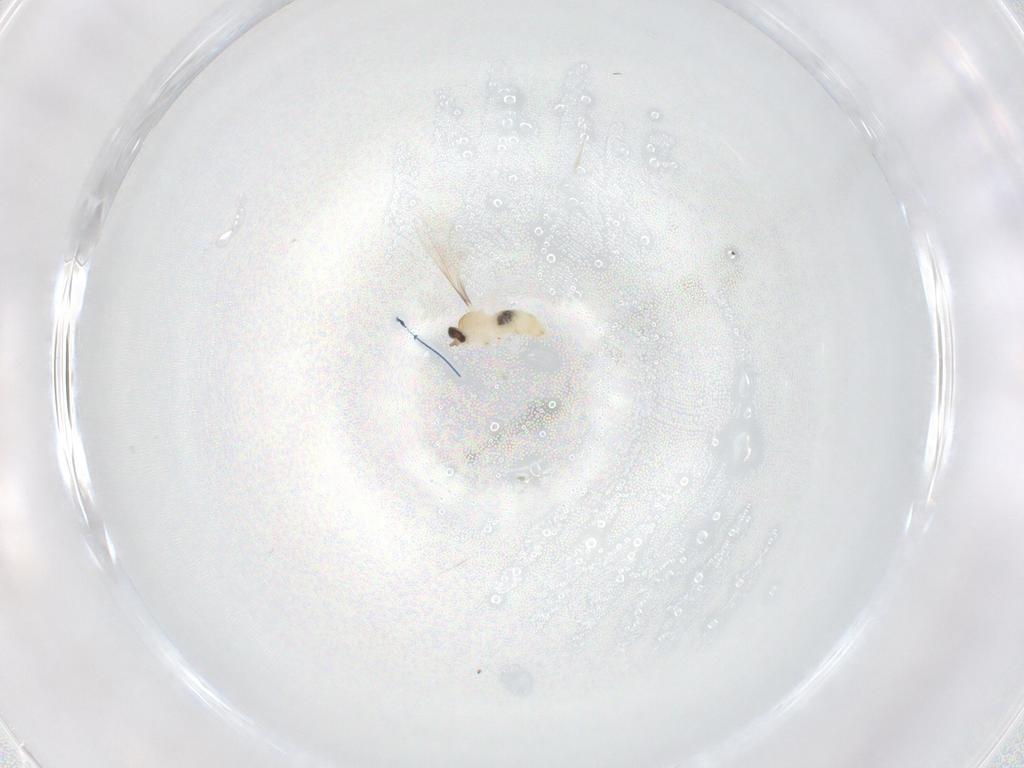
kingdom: Animalia
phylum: Arthropoda
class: Insecta
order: Diptera
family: Cecidomyiidae
